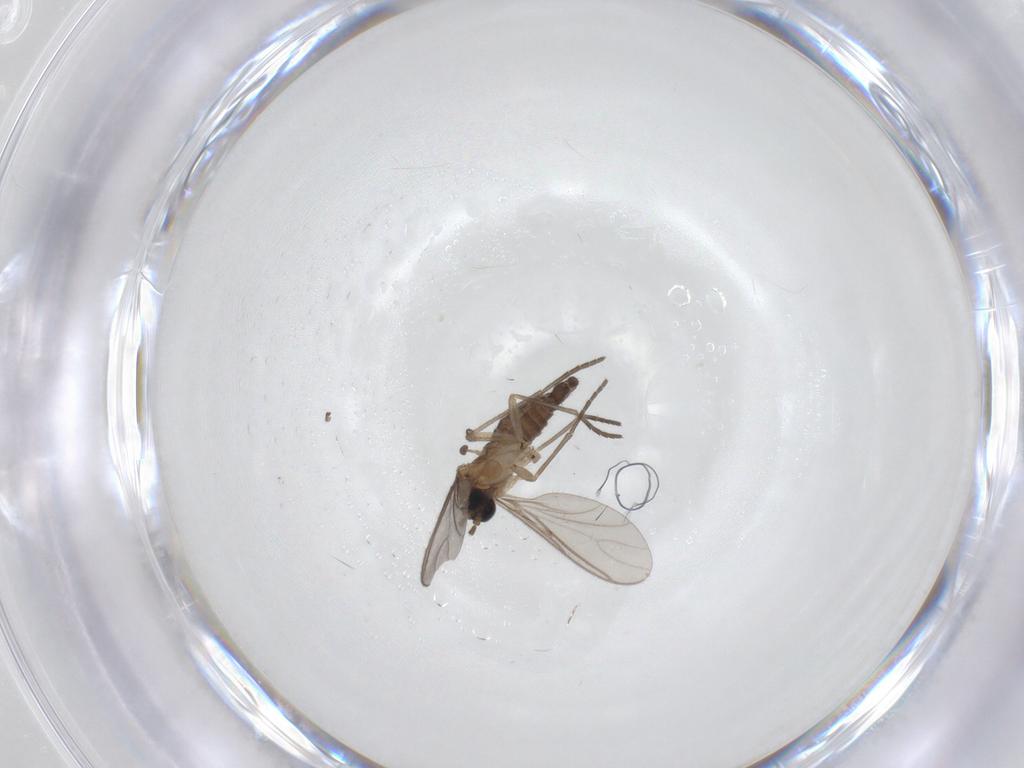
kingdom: Animalia
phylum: Arthropoda
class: Insecta
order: Diptera
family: Sciaridae
